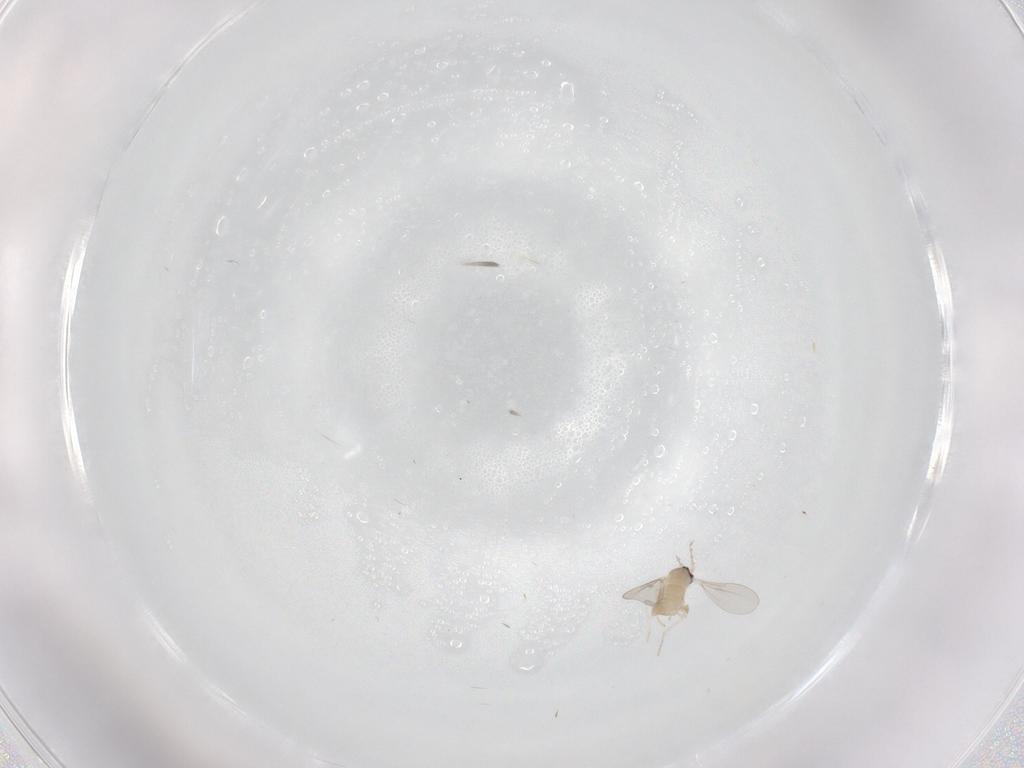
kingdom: Animalia
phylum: Arthropoda
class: Insecta
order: Diptera
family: Cecidomyiidae
